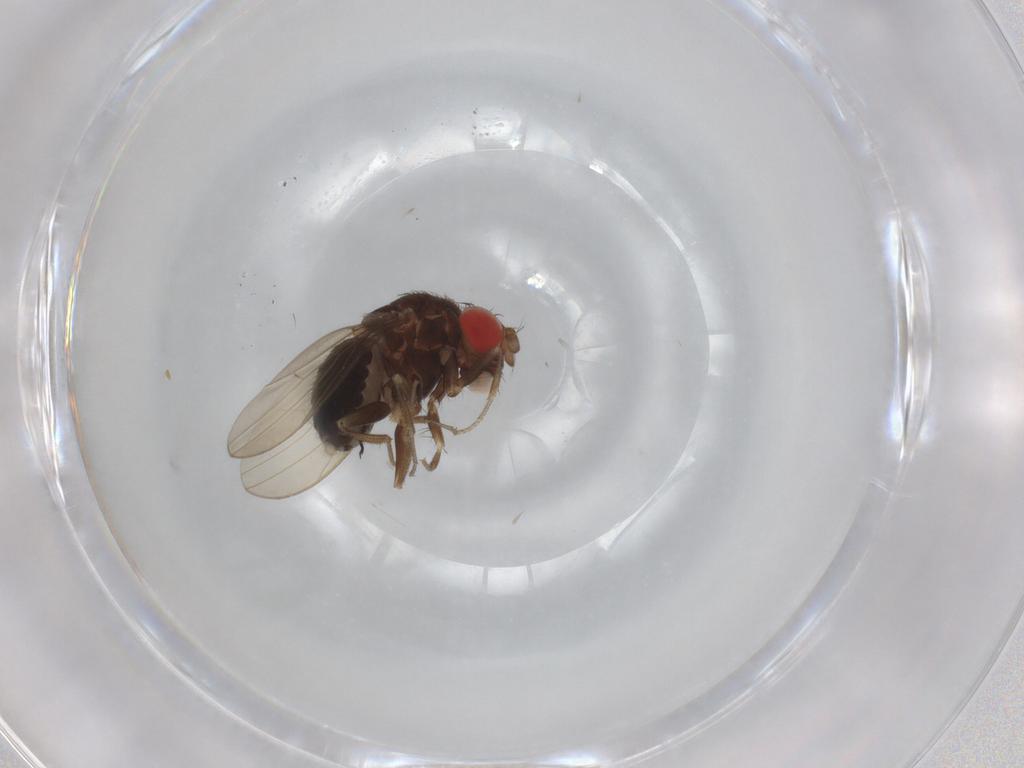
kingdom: Animalia
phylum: Arthropoda
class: Insecta
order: Diptera
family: Drosophilidae
